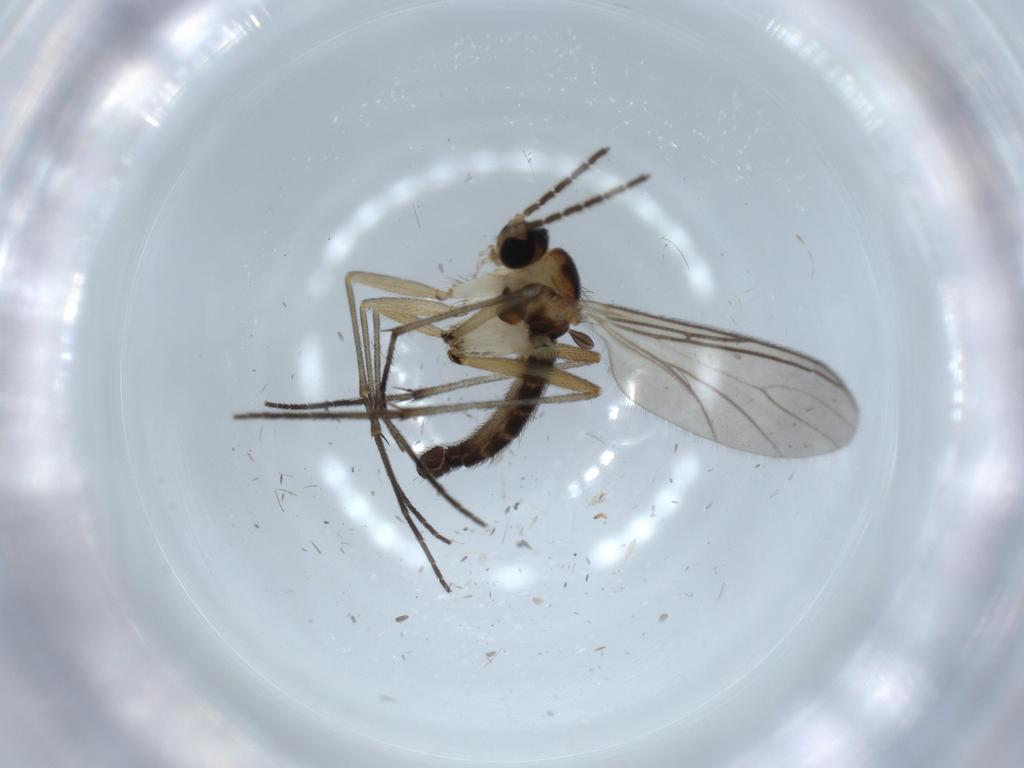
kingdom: Animalia
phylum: Arthropoda
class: Insecta
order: Diptera
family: Sciaridae
